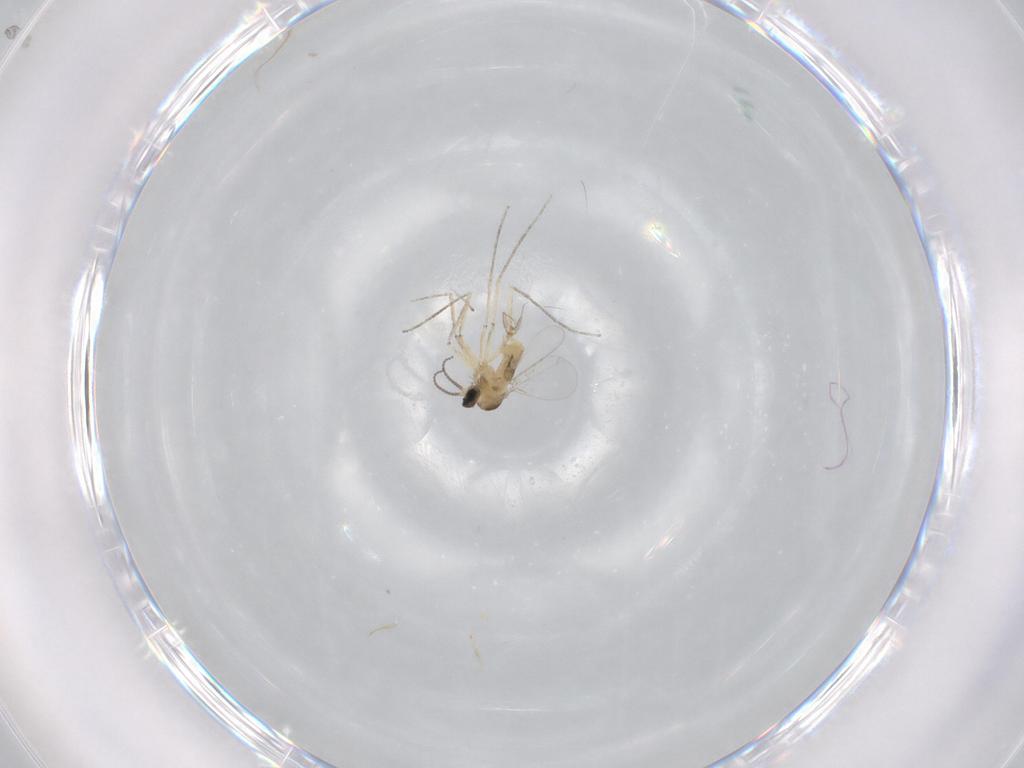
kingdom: Animalia
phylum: Arthropoda
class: Insecta
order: Diptera
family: Cecidomyiidae
